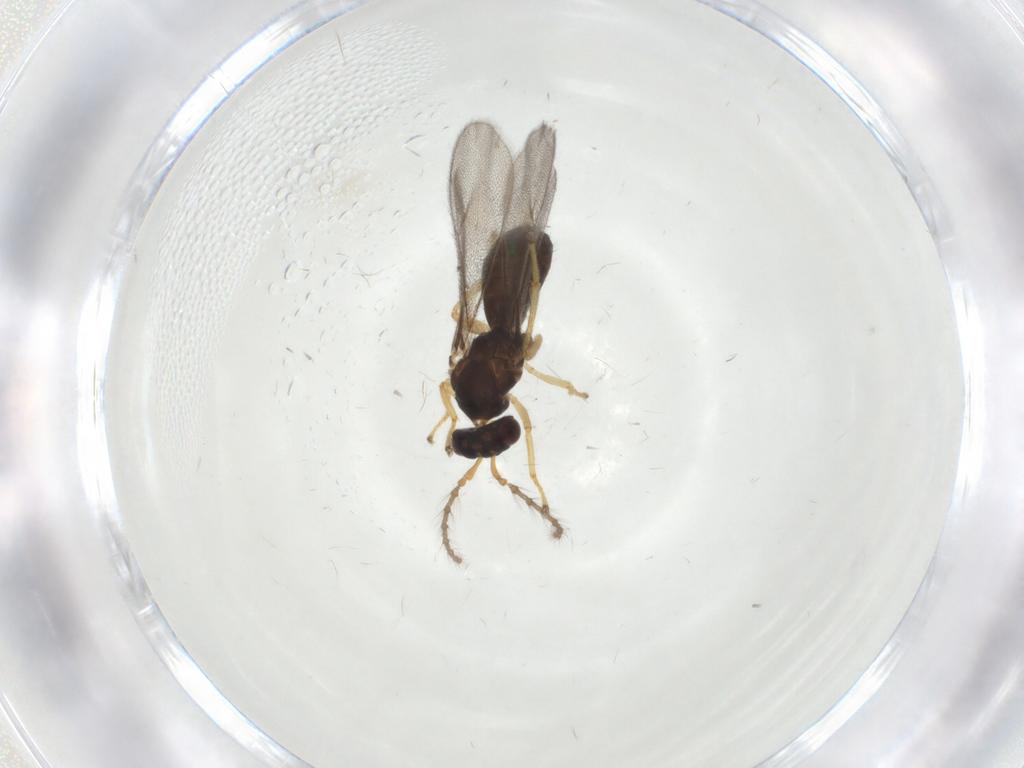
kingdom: Animalia
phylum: Arthropoda
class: Insecta
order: Hymenoptera
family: Eulophidae
